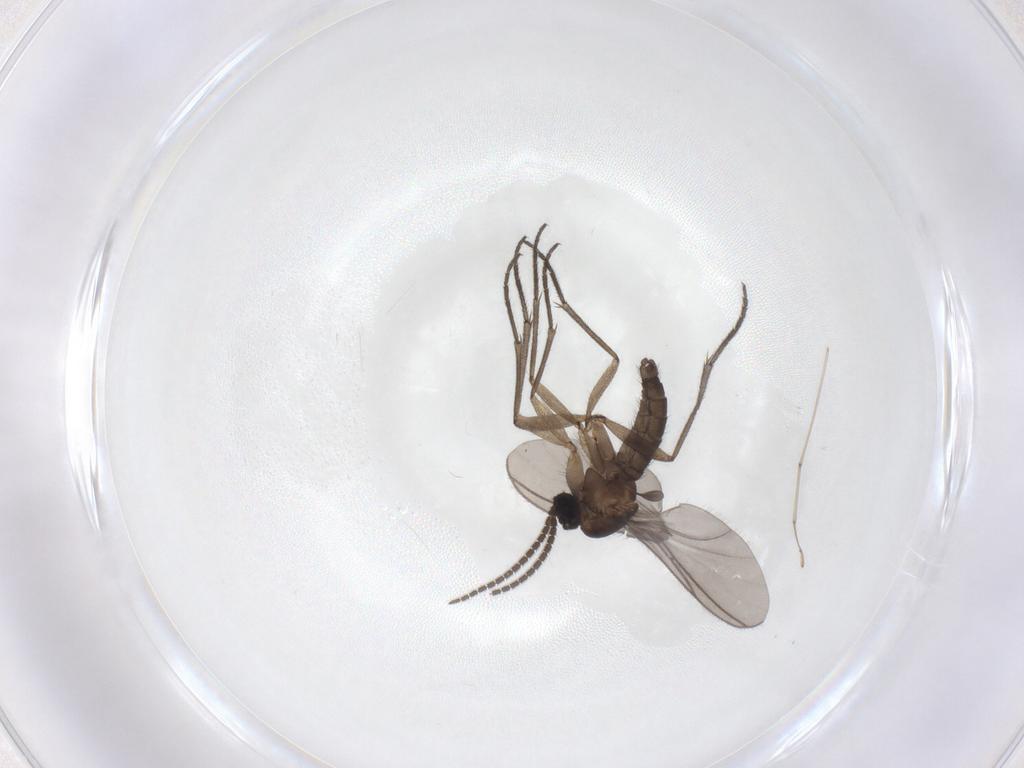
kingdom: Animalia
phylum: Arthropoda
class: Insecta
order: Diptera
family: Sciaridae
